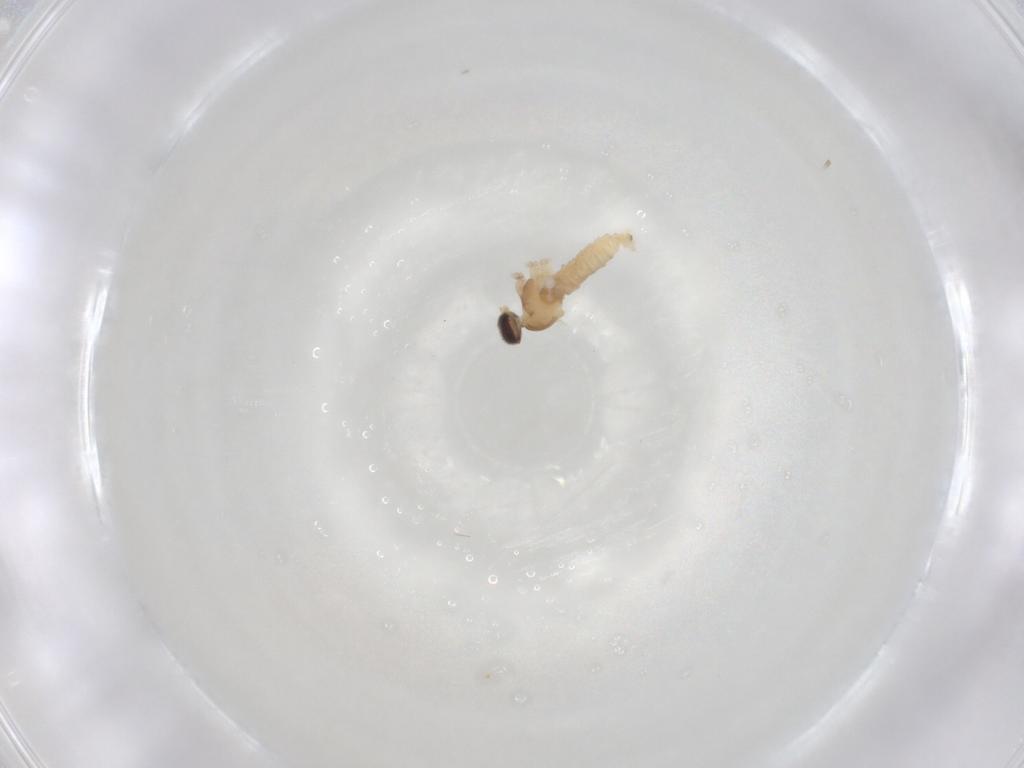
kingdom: Animalia
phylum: Arthropoda
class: Insecta
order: Diptera
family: Cecidomyiidae
